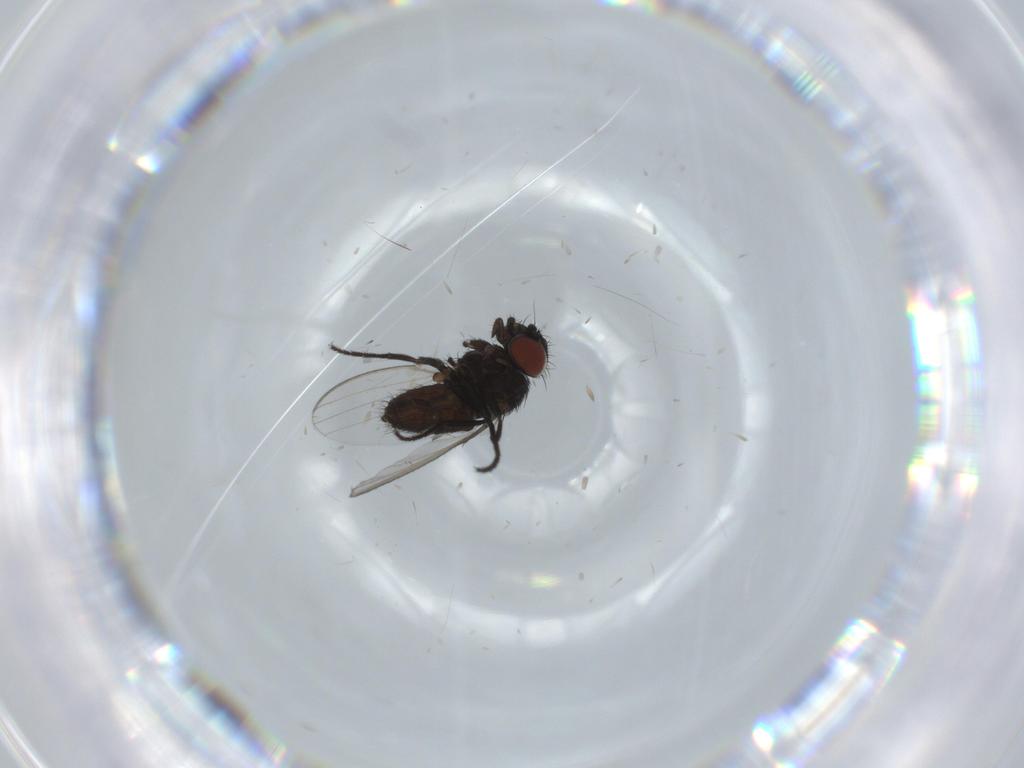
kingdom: Animalia
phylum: Arthropoda
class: Insecta
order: Diptera
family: Milichiidae
